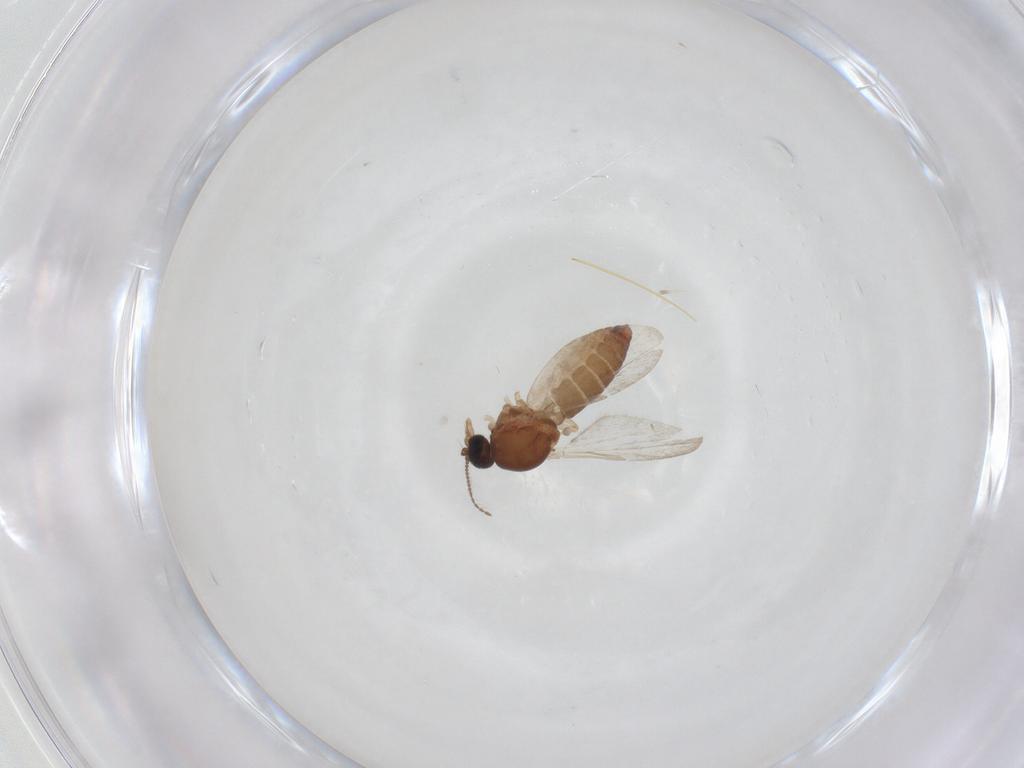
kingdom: Animalia
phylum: Arthropoda
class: Insecta
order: Diptera
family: Ceratopogonidae
